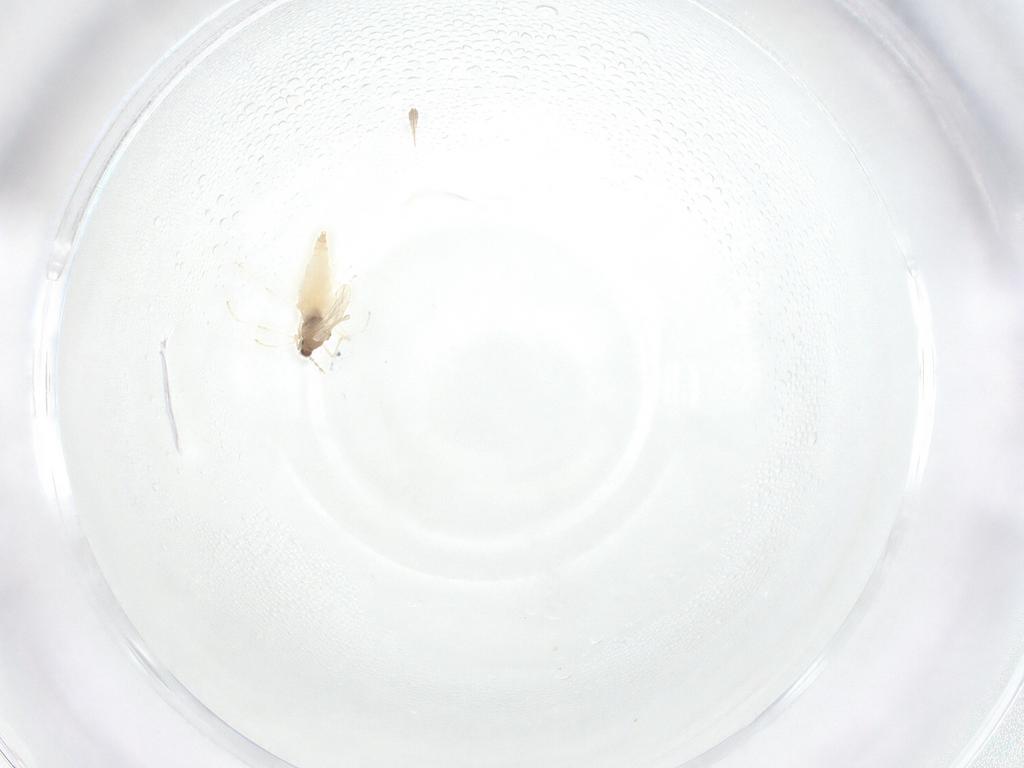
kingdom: Animalia
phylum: Arthropoda
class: Insecta
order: Diptera
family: Cecidomyiidae
